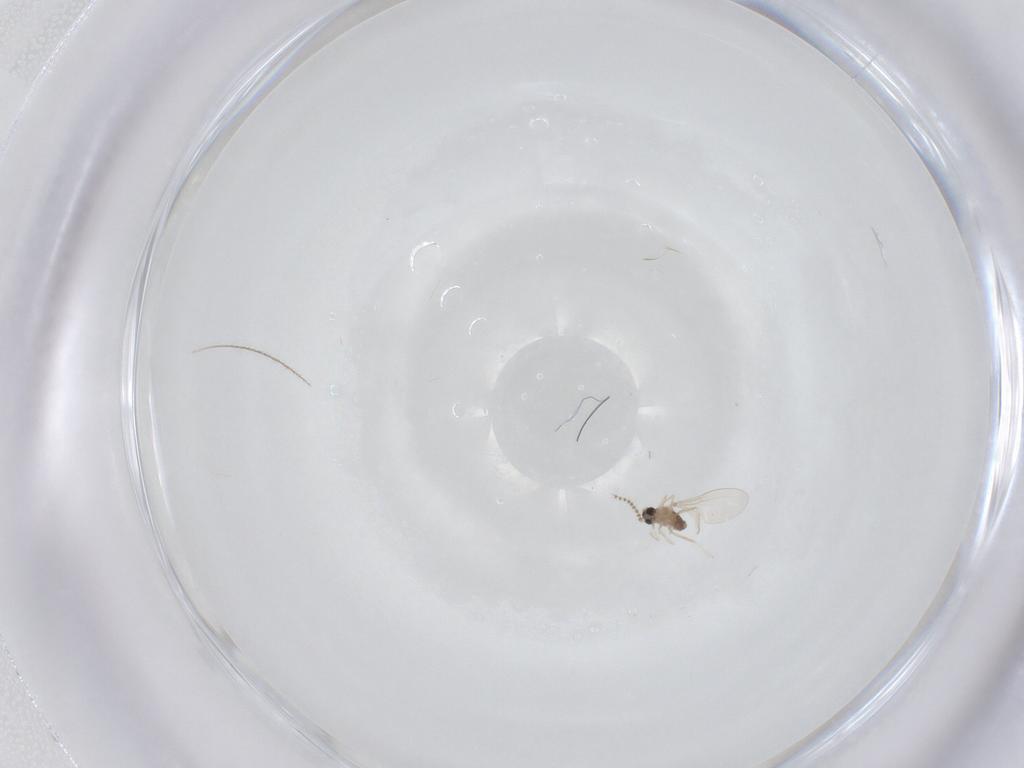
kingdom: Animalia
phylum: Arthropoda
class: Insecta
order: Diptera
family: Cecidomyiidae
